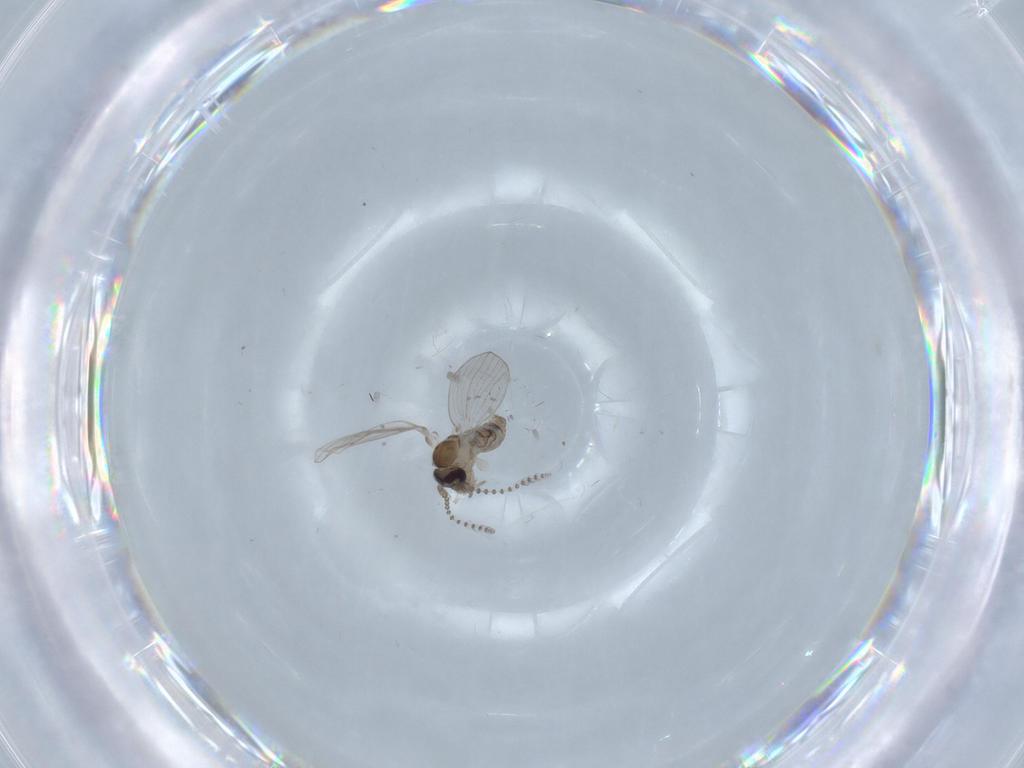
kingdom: Animalia
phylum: Arthropoda
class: Insecta
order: Diptera
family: Psychodidae
